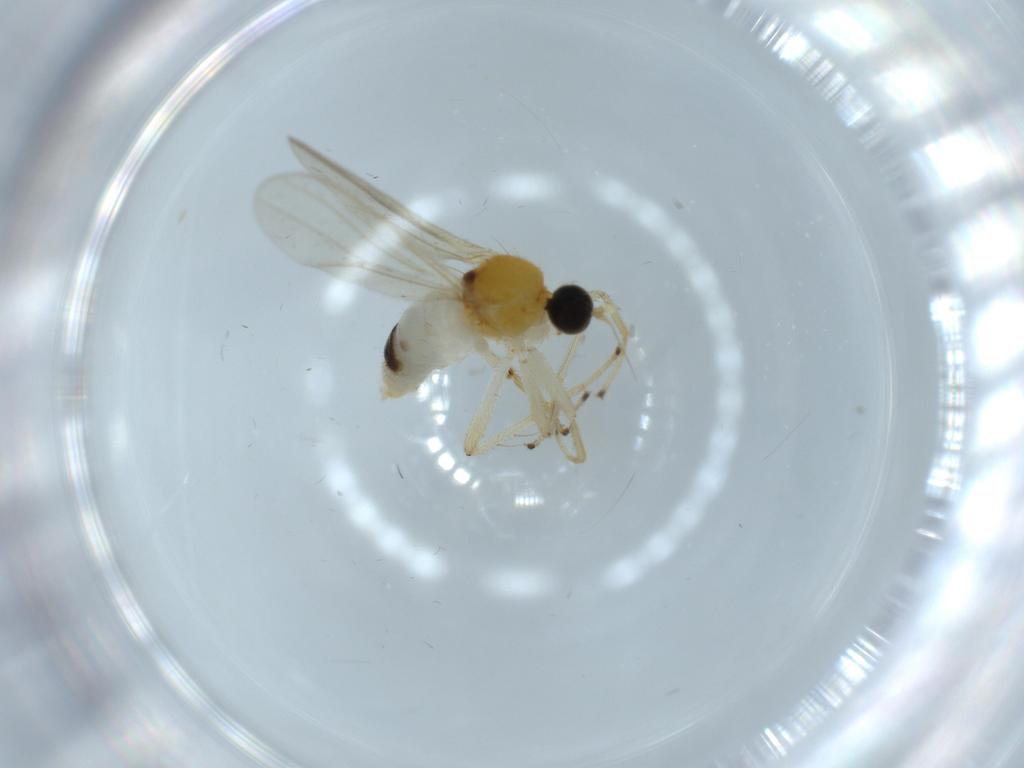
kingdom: Animalia
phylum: Arthropoda
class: Insecta
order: Diptera
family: Hybotidae
